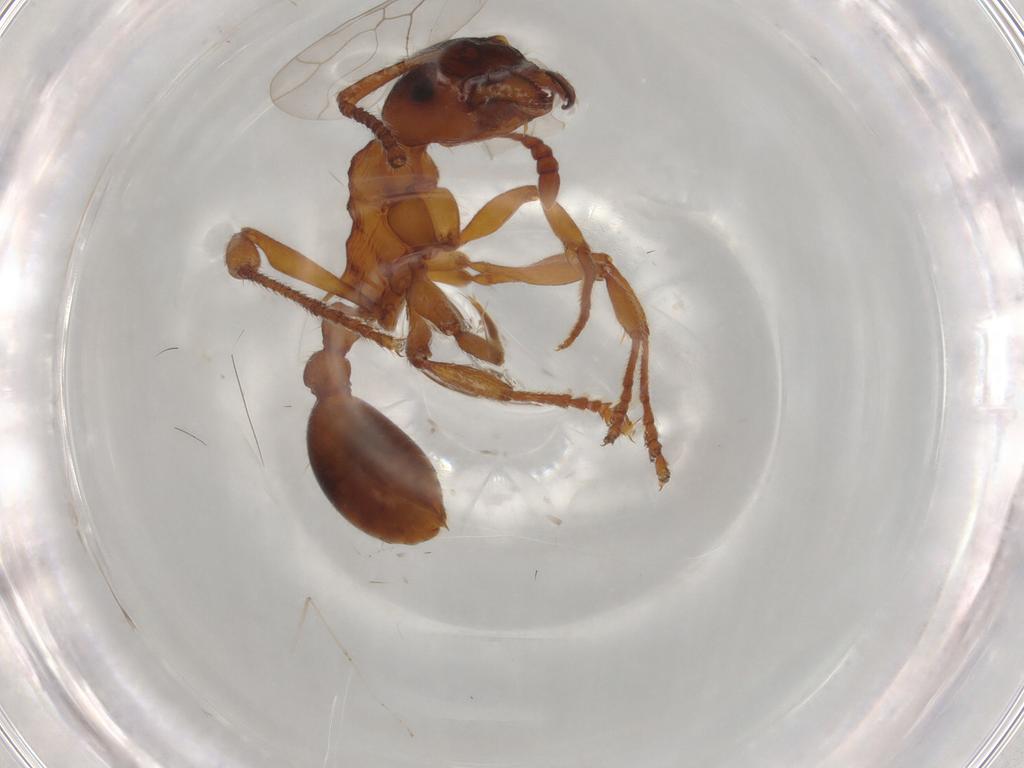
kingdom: Animalia
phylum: Arthropoda
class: Insecta
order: Hymenoptera
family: Formicidae
